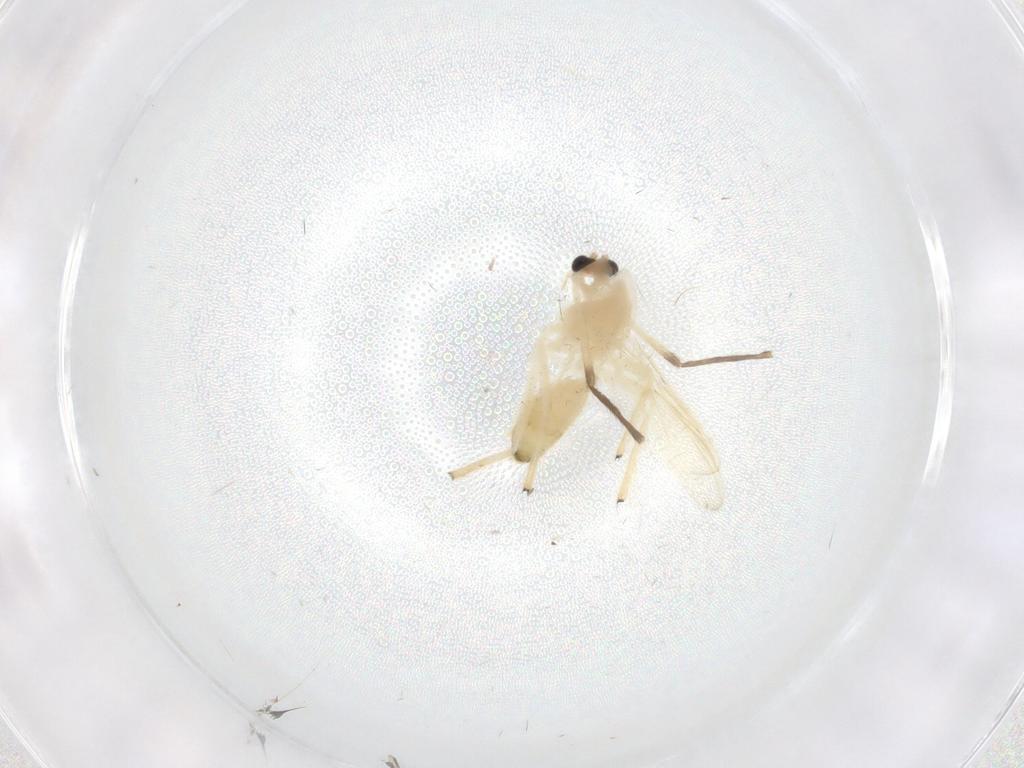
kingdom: Animalia
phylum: Arthropoda
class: Insecta
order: Diptera
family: Chironomidae
